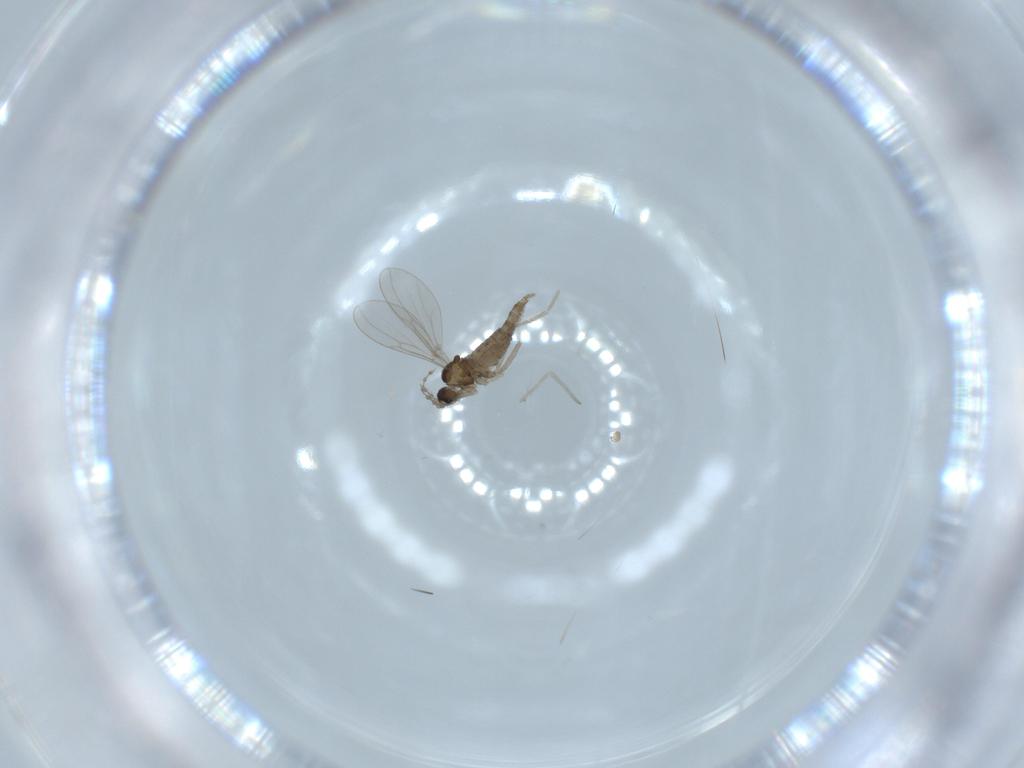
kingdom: Animalia
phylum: Arthropoda
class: Insecta
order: Diptera
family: Cecidomyiidae
